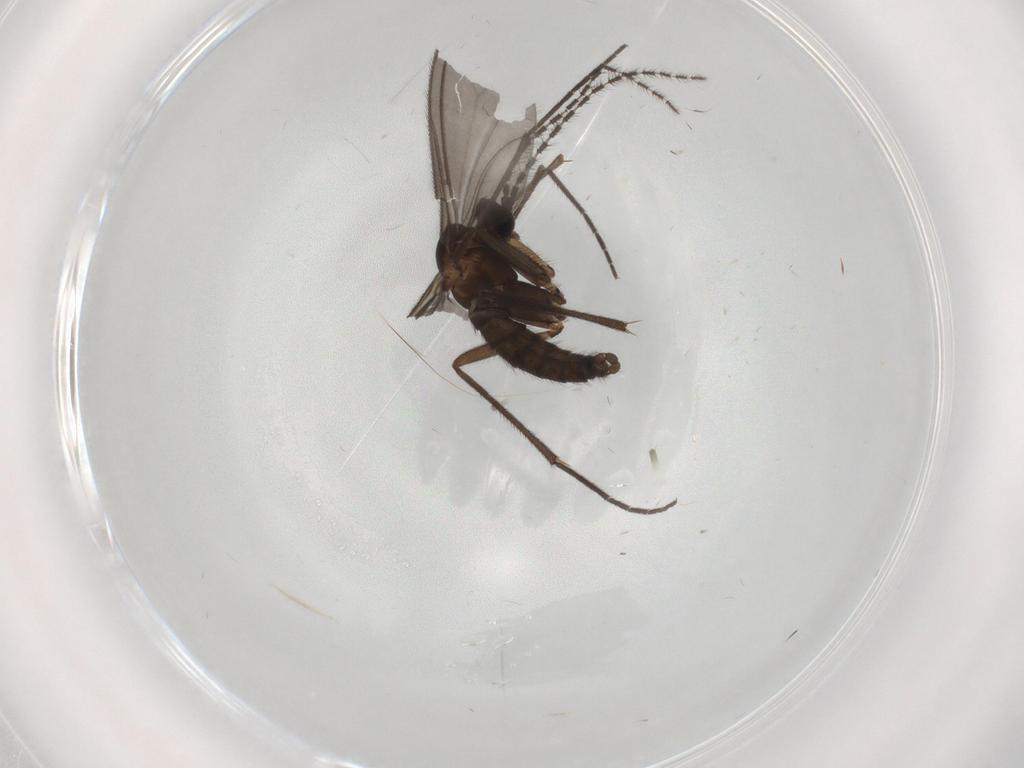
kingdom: Animalia
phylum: Arthropoda
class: Insecta
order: Diptera
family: Sciaridae
